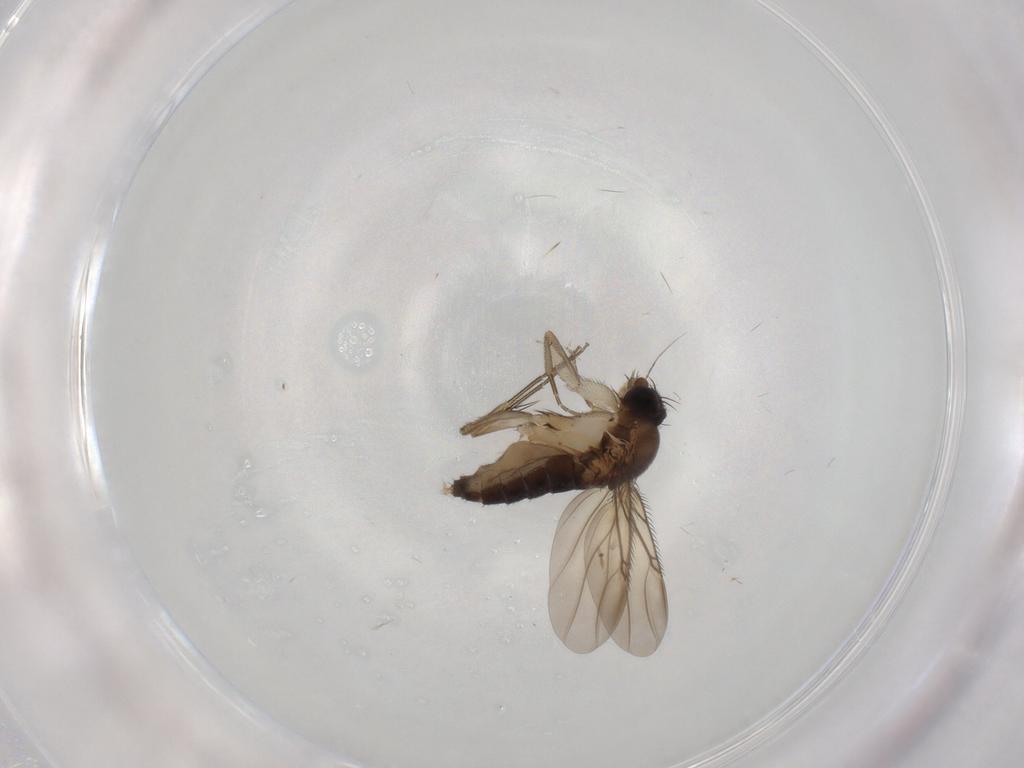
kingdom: Animalia
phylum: Arthropoda
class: Insecta
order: Diptera
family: Phoridae
